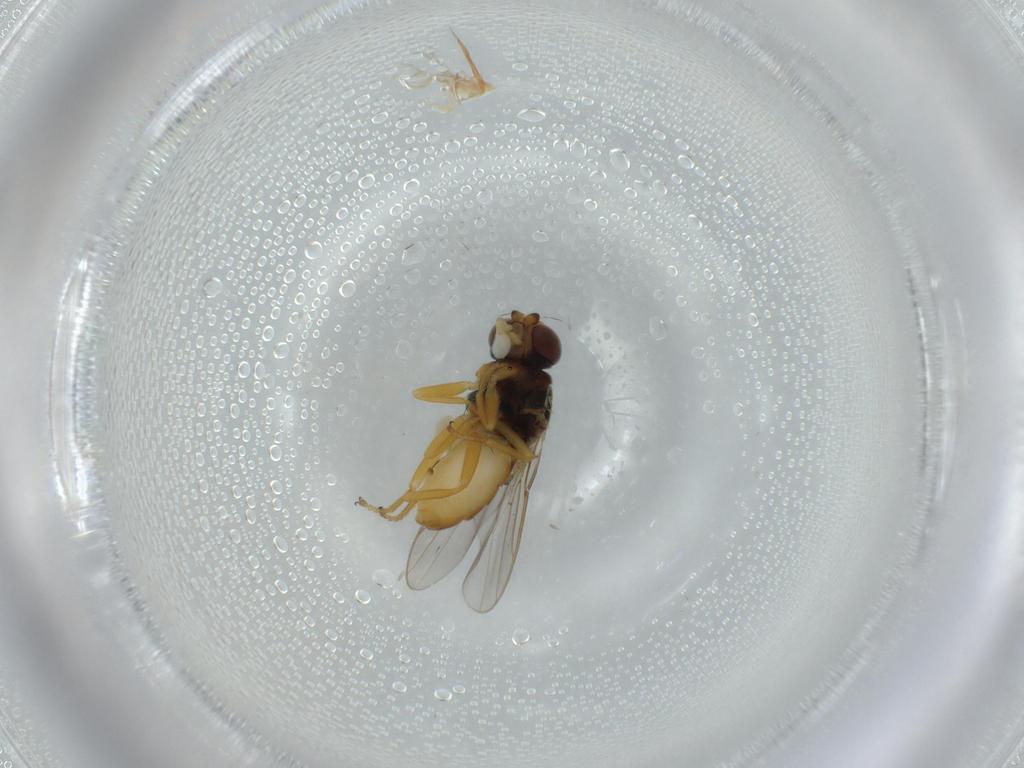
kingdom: Animalia
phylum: Arthropoda
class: Insecta
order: Diptera
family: Chloropidae
